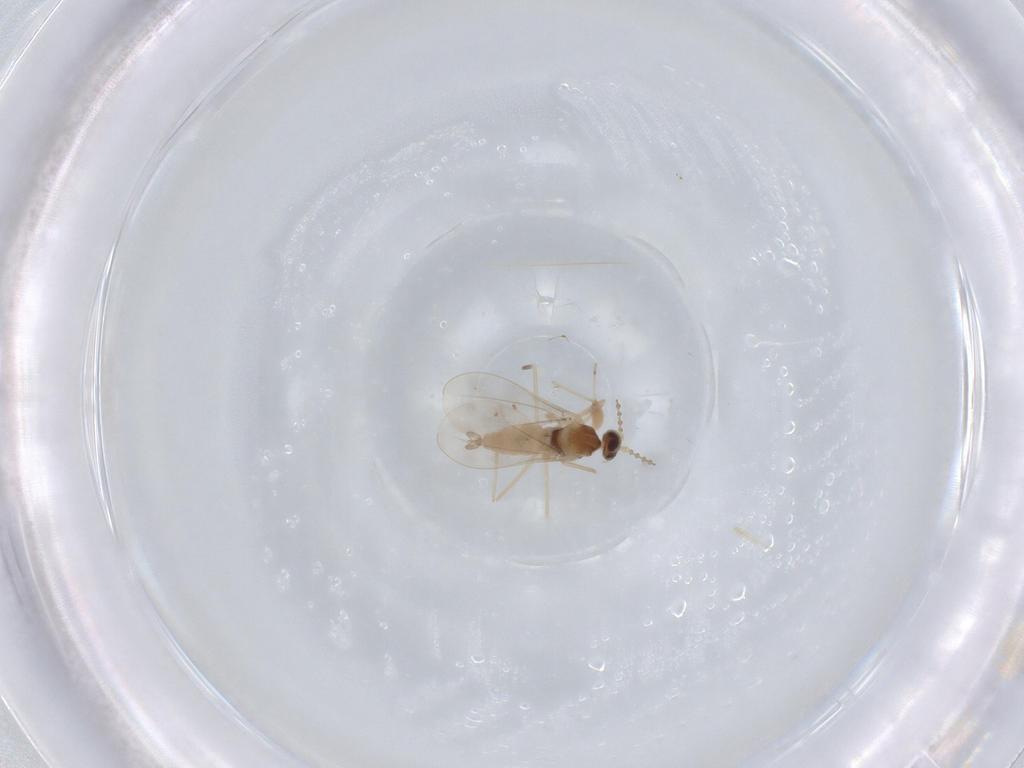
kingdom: Animalia
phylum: Arthropoda
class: Insecta
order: Diptera
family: Cecidomyiidae
